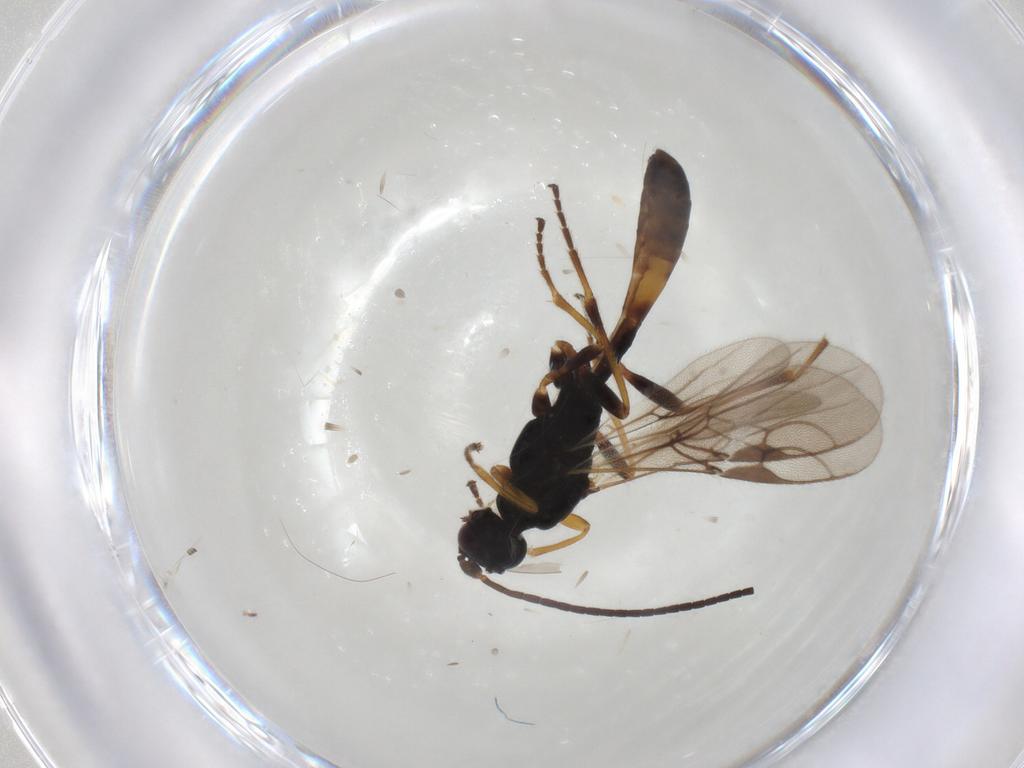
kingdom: Animalia
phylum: Arthropoda
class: Insecta
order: Hymenoptera
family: Braconidae
